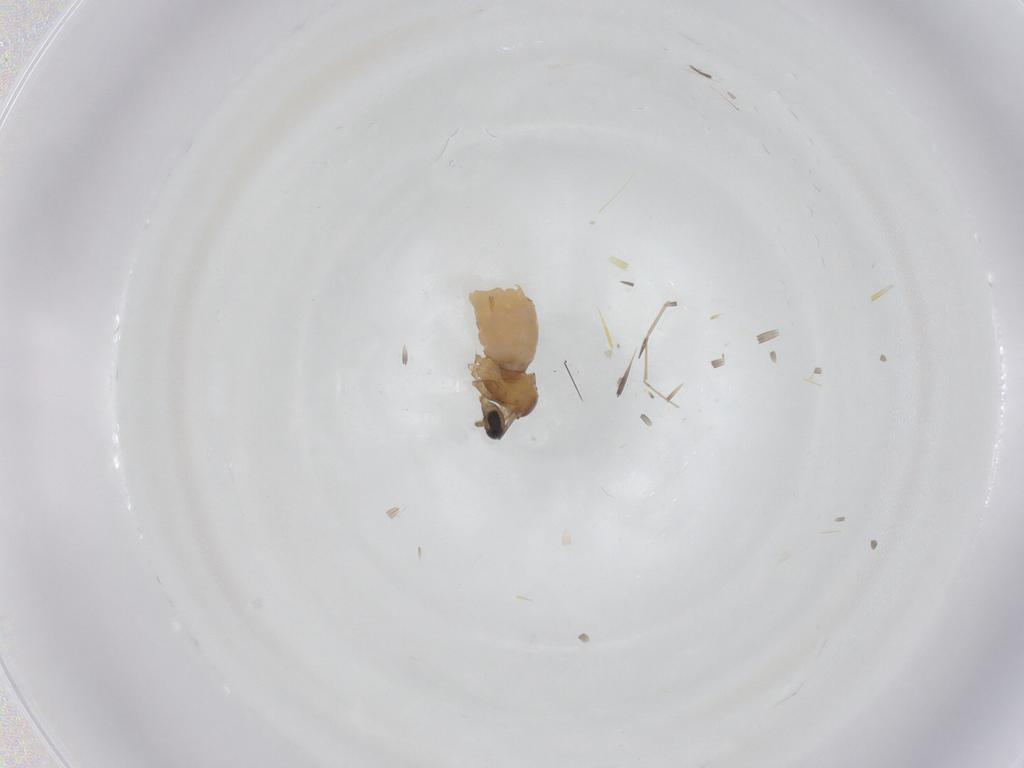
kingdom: Animalia
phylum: Arthropoda
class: Insecta
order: Diptera
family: Cecidomyiidae
